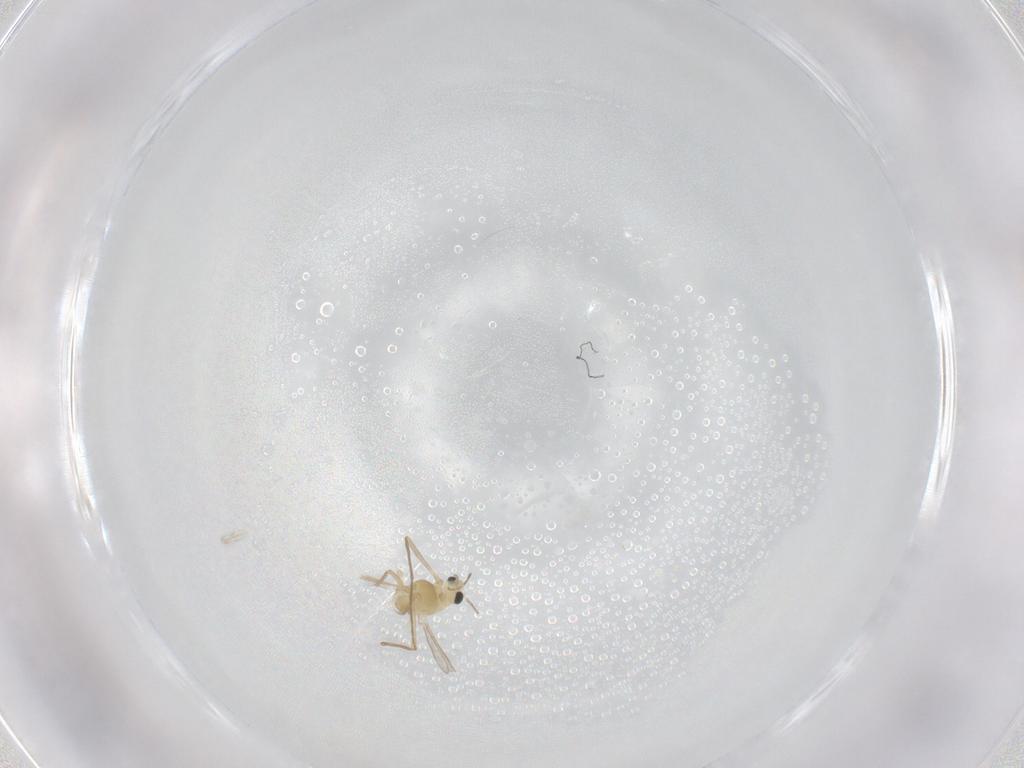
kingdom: Animalia
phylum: Arthropoda
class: Insecta
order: Diptera
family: Chironomidae
